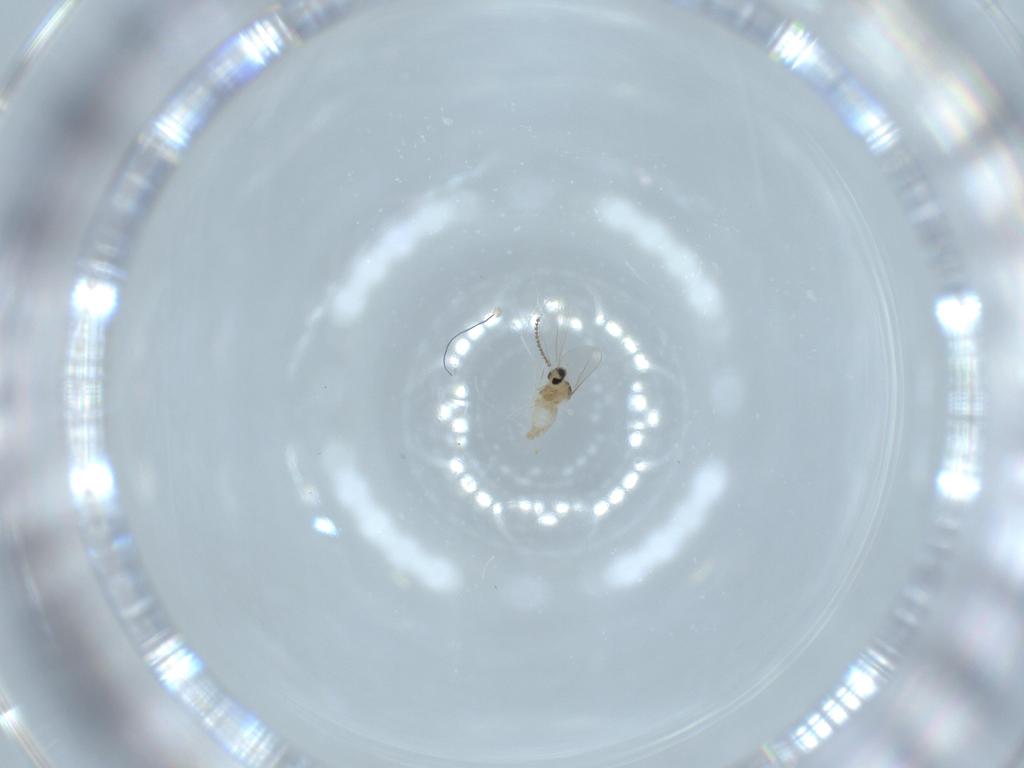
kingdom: Animalia
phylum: Arthropoda
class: Insecta
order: Diptera
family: Cecidomyiidae
